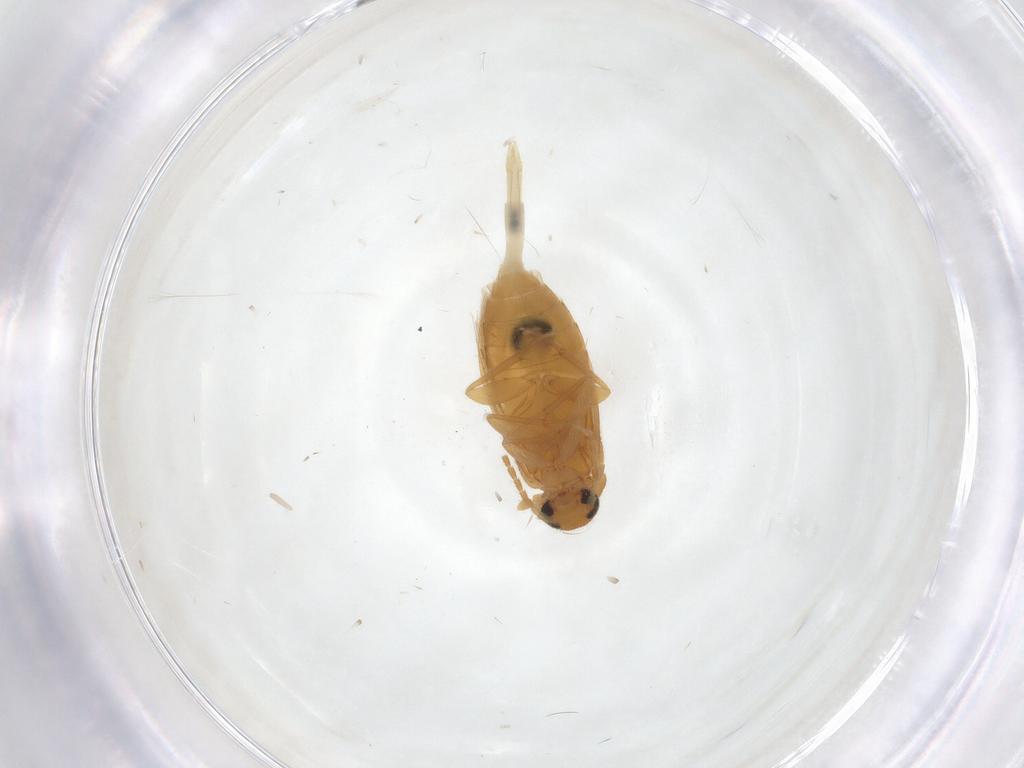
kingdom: Animalia
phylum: Arthropoda
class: Insecta
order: Coleoptera
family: Scraptiidae
